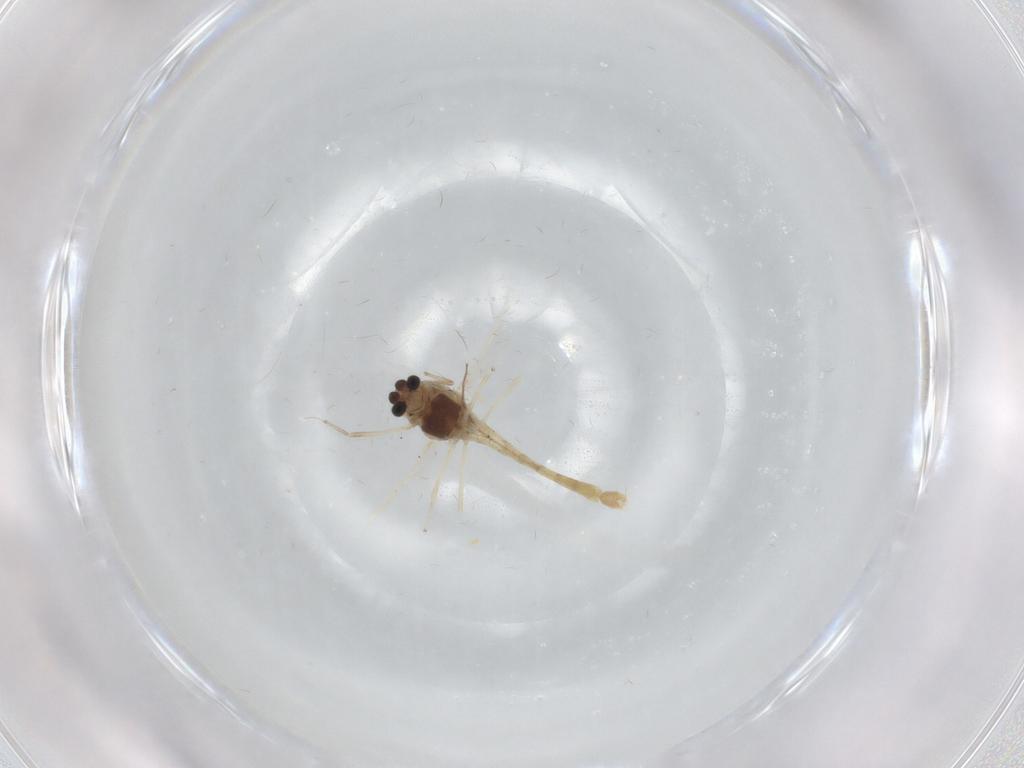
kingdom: Animalia
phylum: Arthropoda
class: Insecta
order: Diptera
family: Chironomidae
